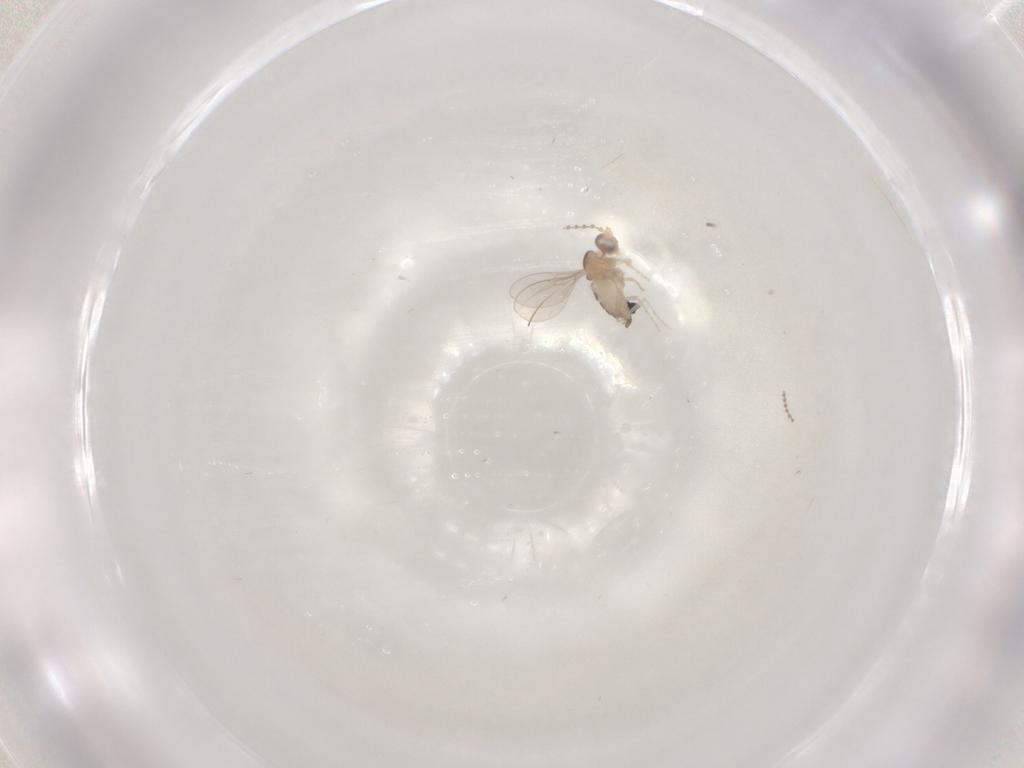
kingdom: Animalia
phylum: Arthropoda
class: Insecta
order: Diptera
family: Cecidomyiidae
